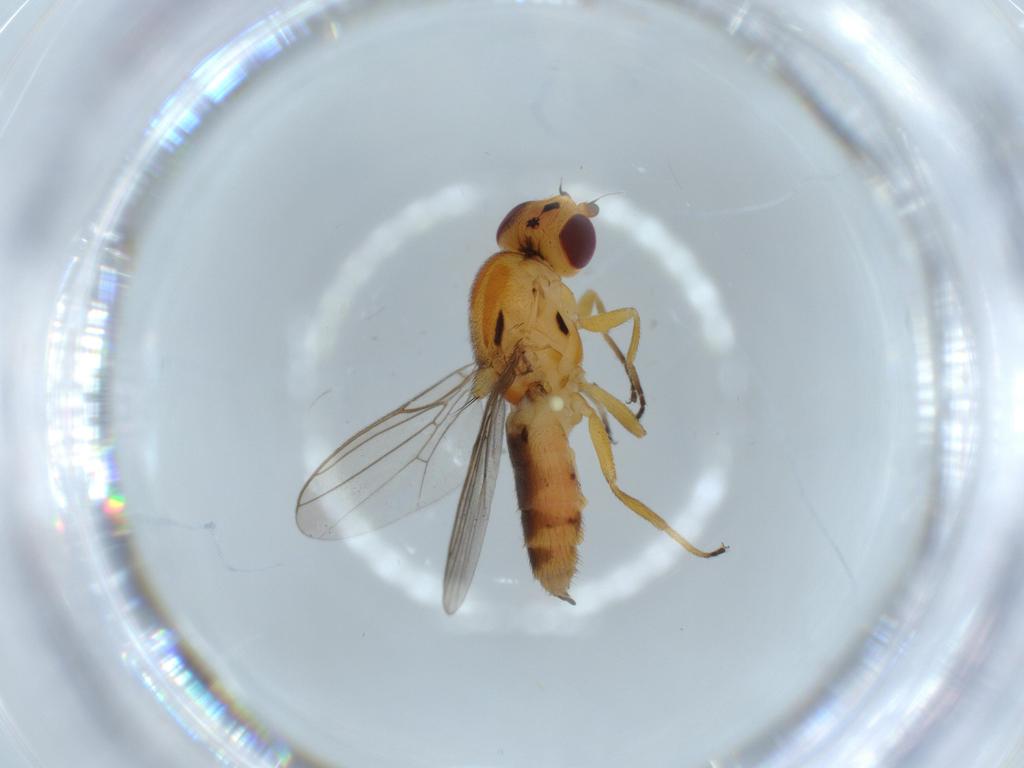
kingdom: Animalia
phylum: Arthropoda
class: Insecta
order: Diptera
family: Chloropidae
